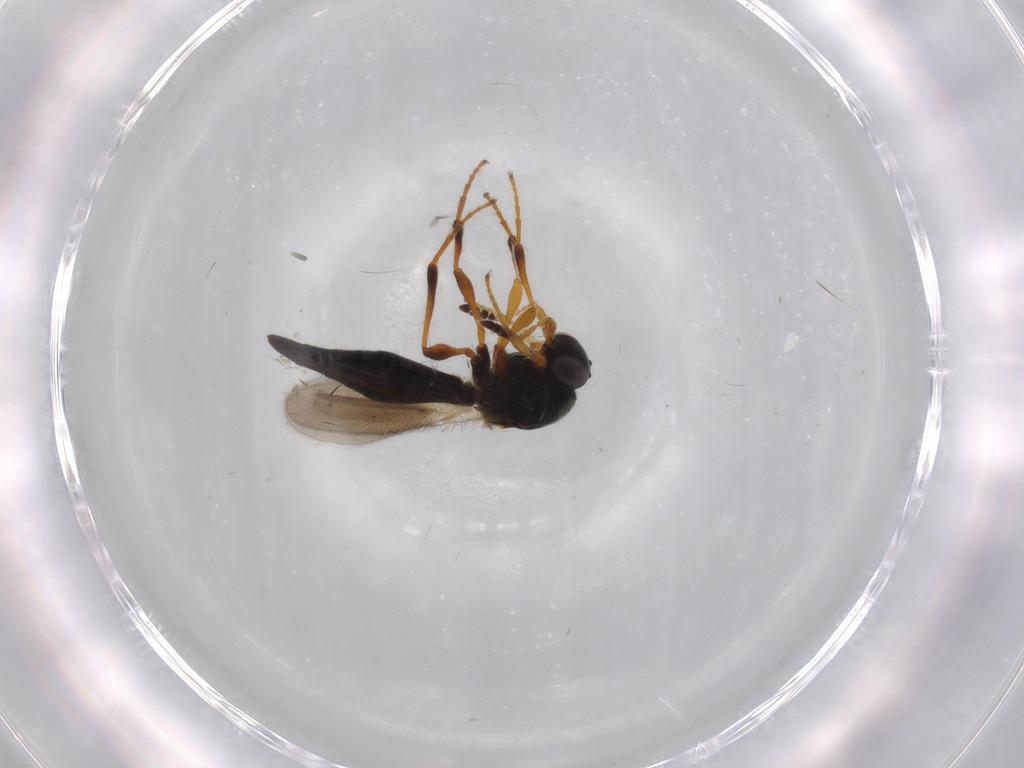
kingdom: Animalia
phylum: Arthropoda
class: Insecta
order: Hymenoptera
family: Platygastridae
